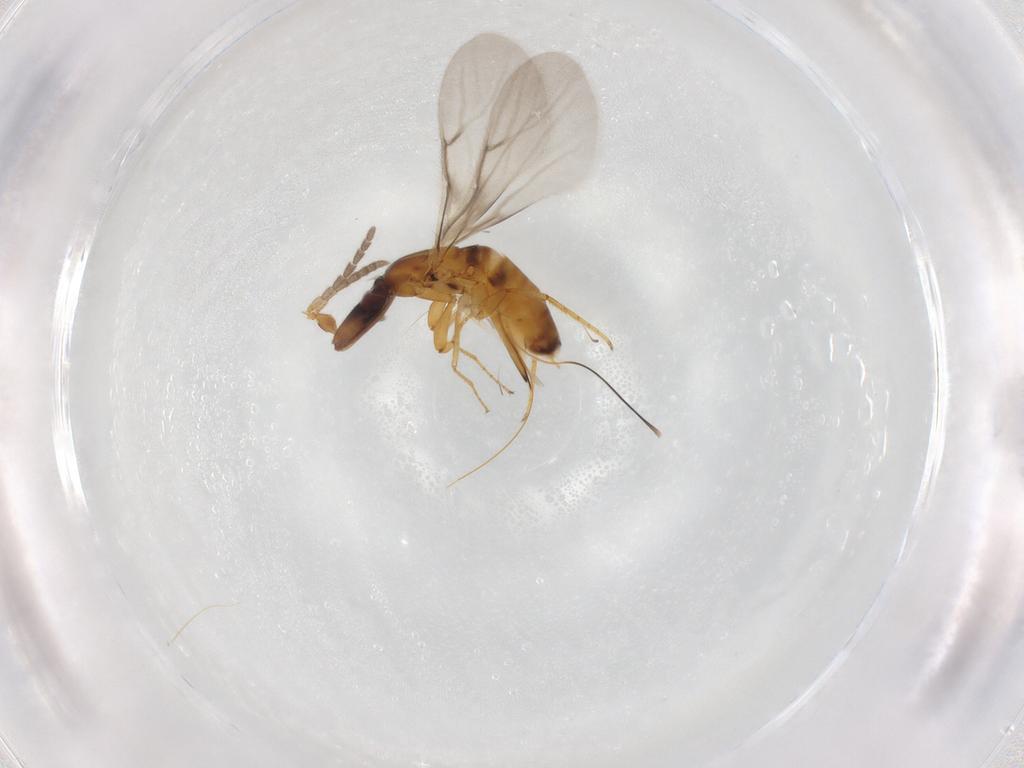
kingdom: Animalia
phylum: Arthropoda
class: Insecta
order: Hymenoptera
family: Agaonidae
